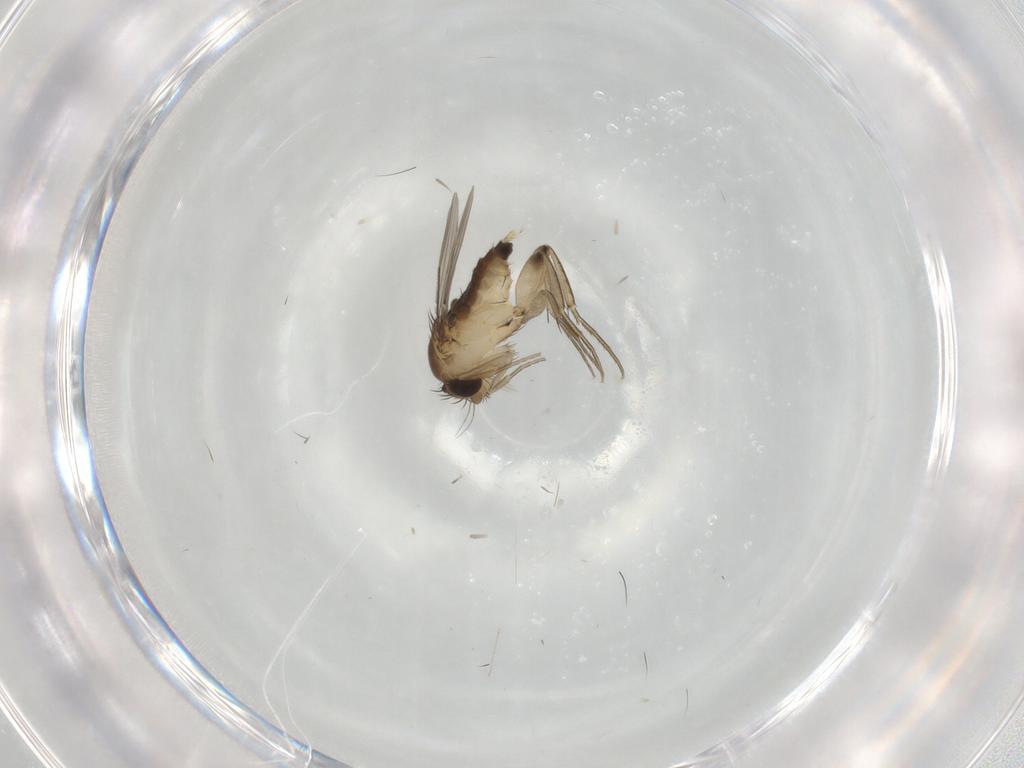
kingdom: Animalia
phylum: Arthropoda
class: Insecta
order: Diptera
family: Phoridae
